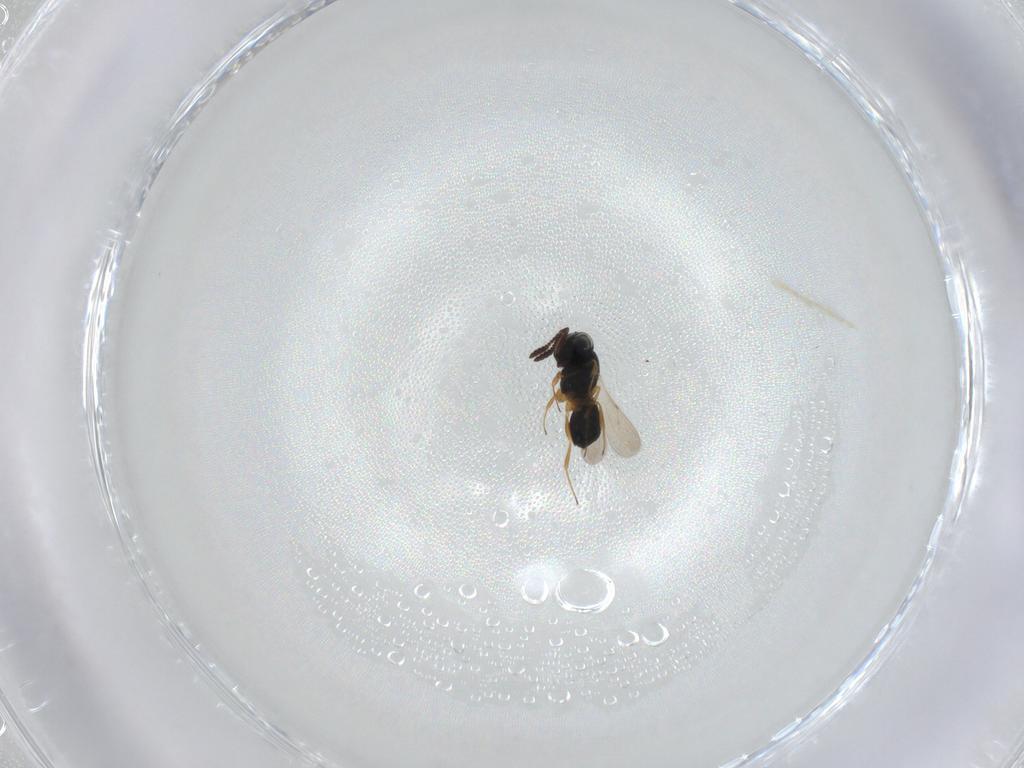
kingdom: Animalia
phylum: Arthropoda
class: Insecta
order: Hymenoptera
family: Scelionidae
